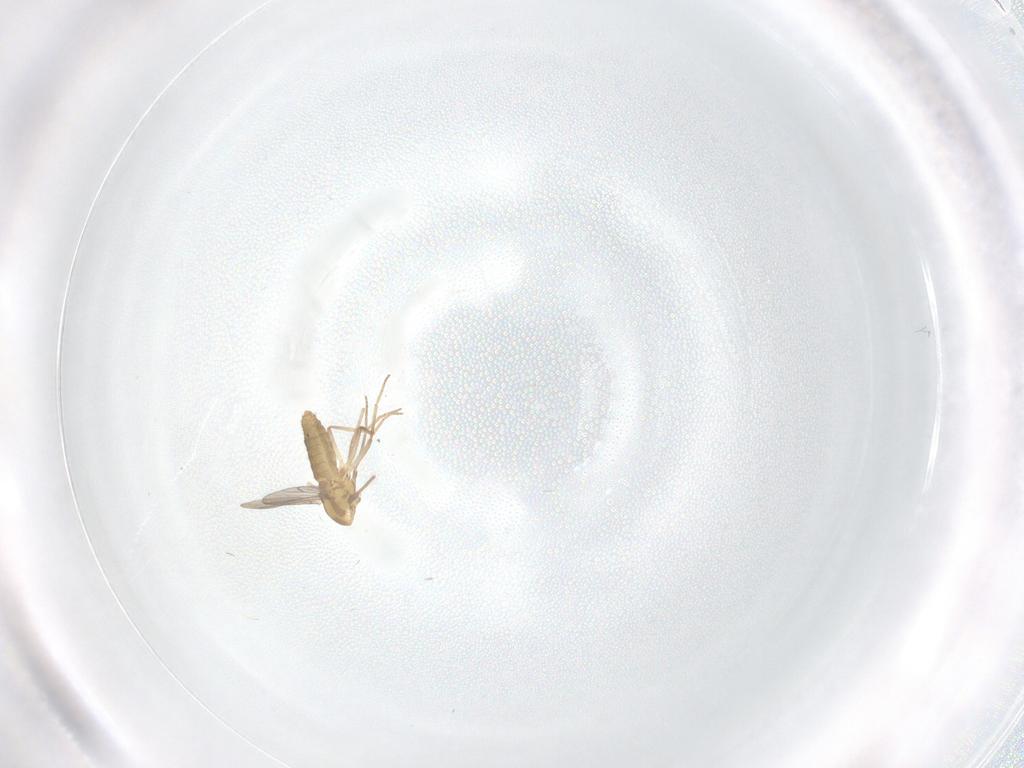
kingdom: Animalia
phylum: Arthropoda
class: Insecta
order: Diptera
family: Chironomidae
